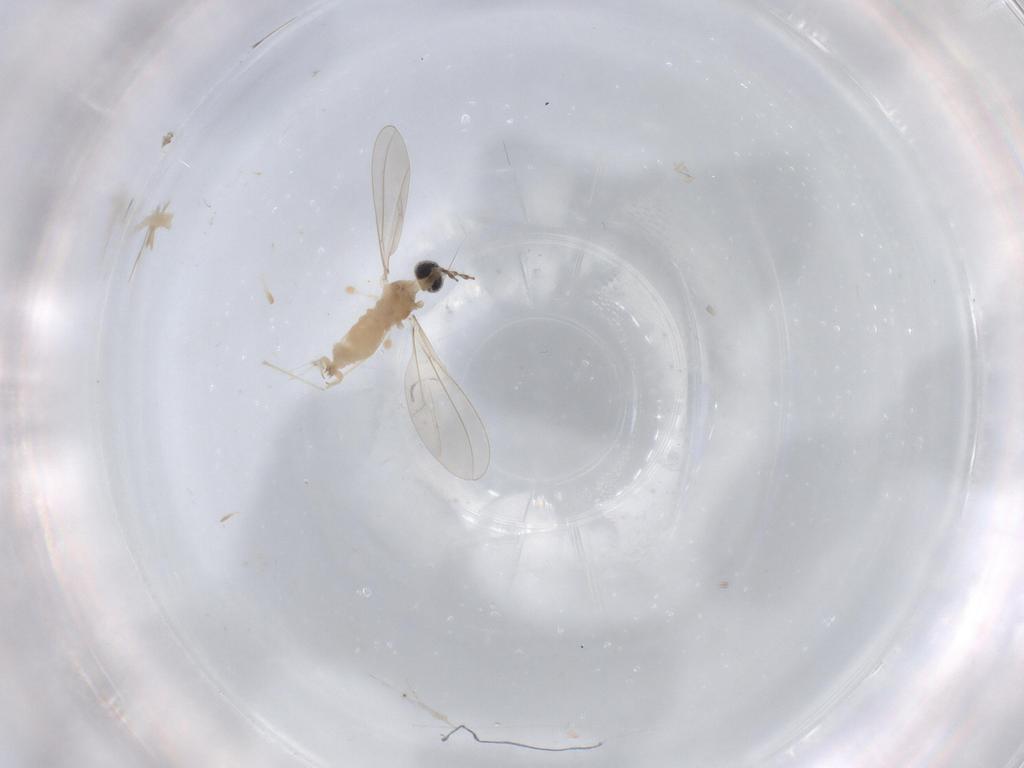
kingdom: Animalia
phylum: Arthropoda
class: Insecta
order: Diptera
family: Cecidomyiidae
